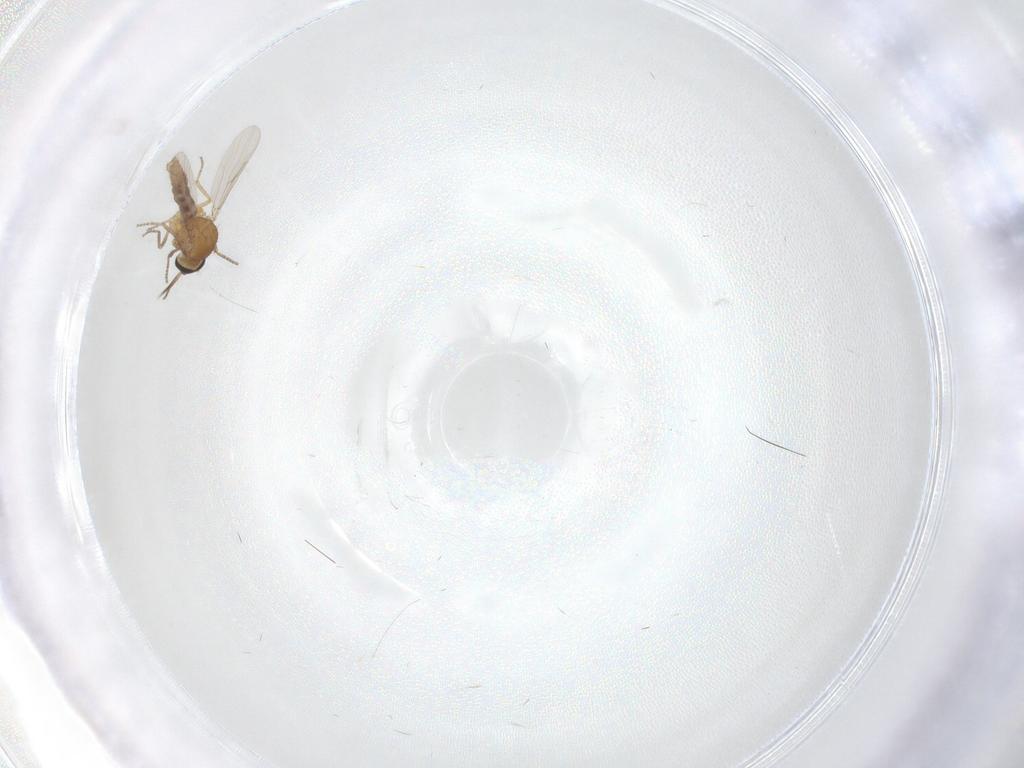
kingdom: Animalia
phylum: Arthropoda
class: Insecta
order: Diptera
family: Ceratopogonidae
